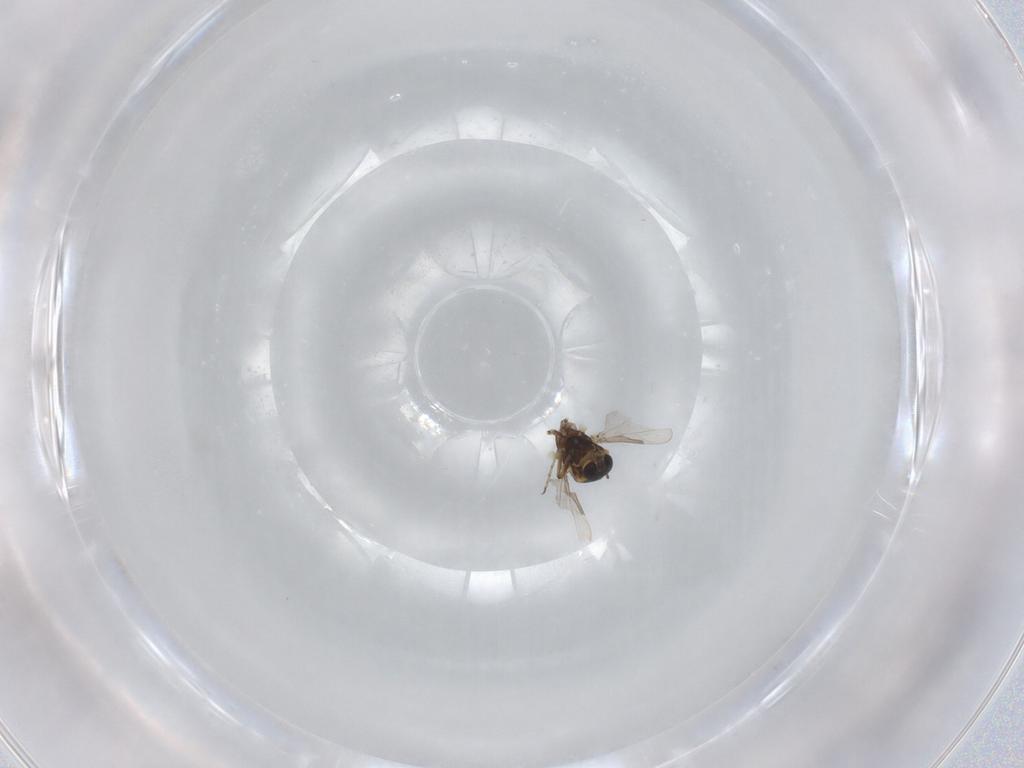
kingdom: Animalia
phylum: Arthropoda
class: Insecta
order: Diptera
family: Ceratopogonidae
